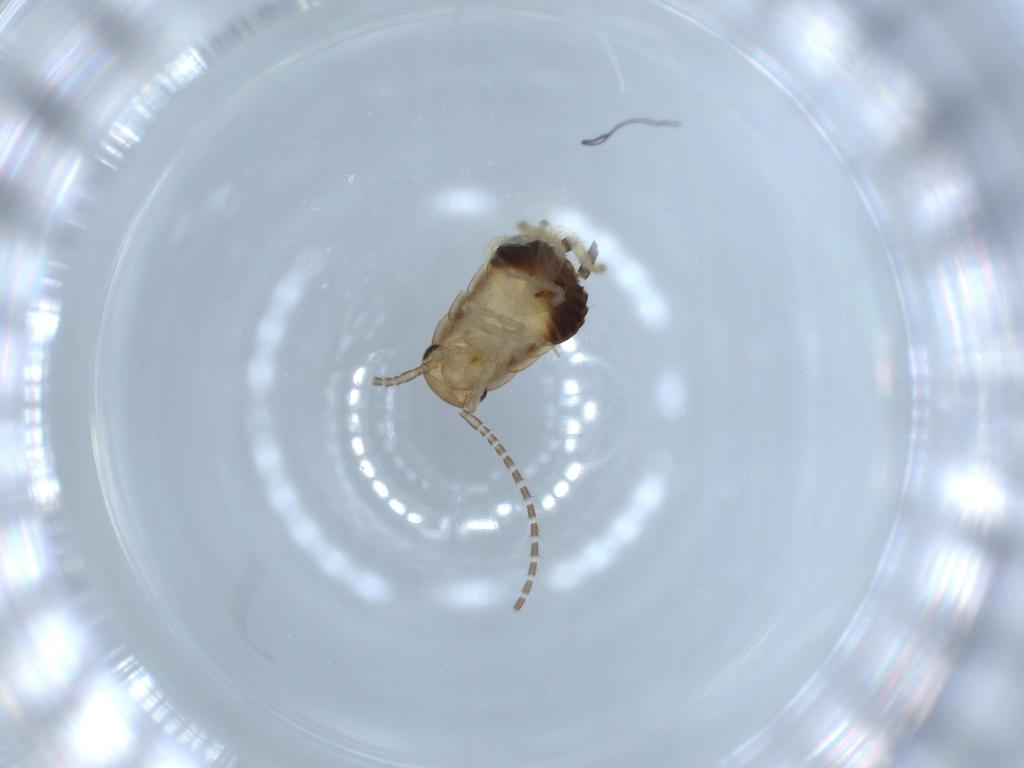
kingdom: Animalia
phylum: Arthropoda
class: Insecta
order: Blattodea
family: Ectobiidae
